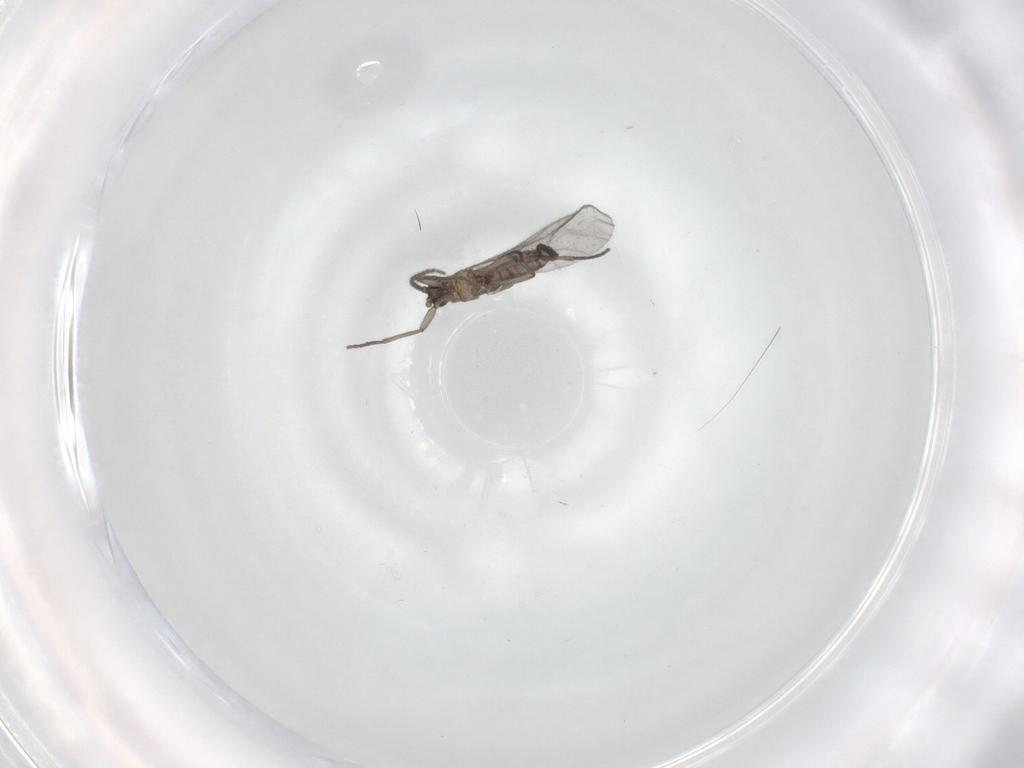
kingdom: Animalia
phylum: Arthropoda
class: Insecta
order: Diptera
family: Sciaridae
